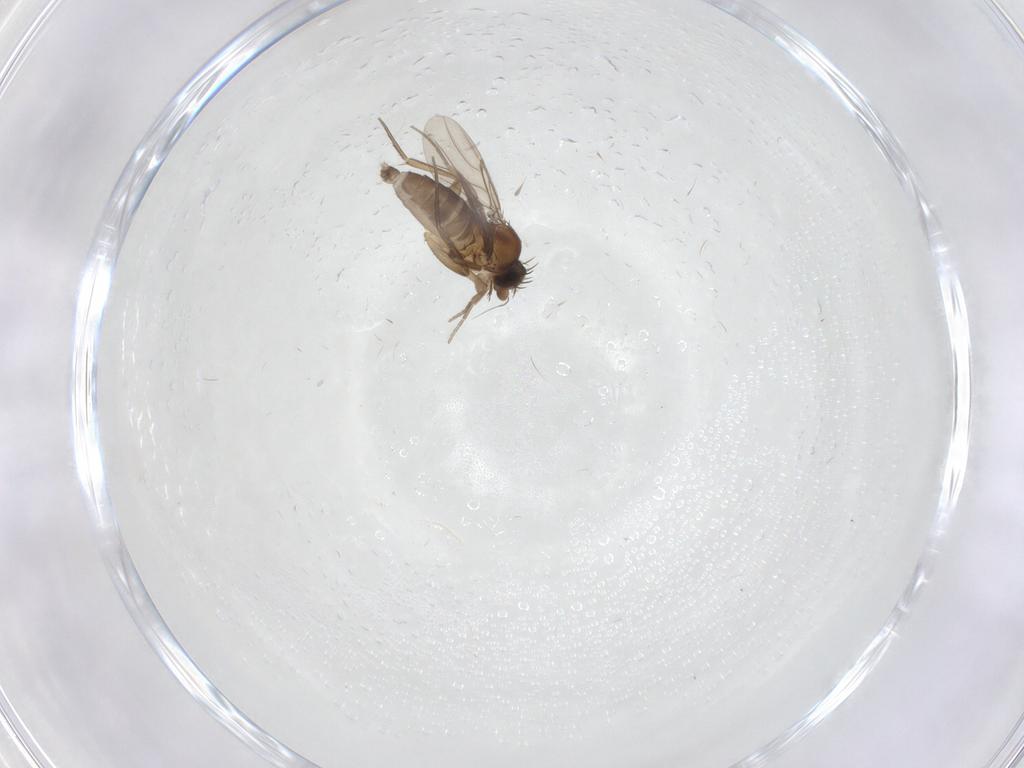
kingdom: Animalia
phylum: Arthropoda
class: Insecta
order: Diptera
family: Phoridae
